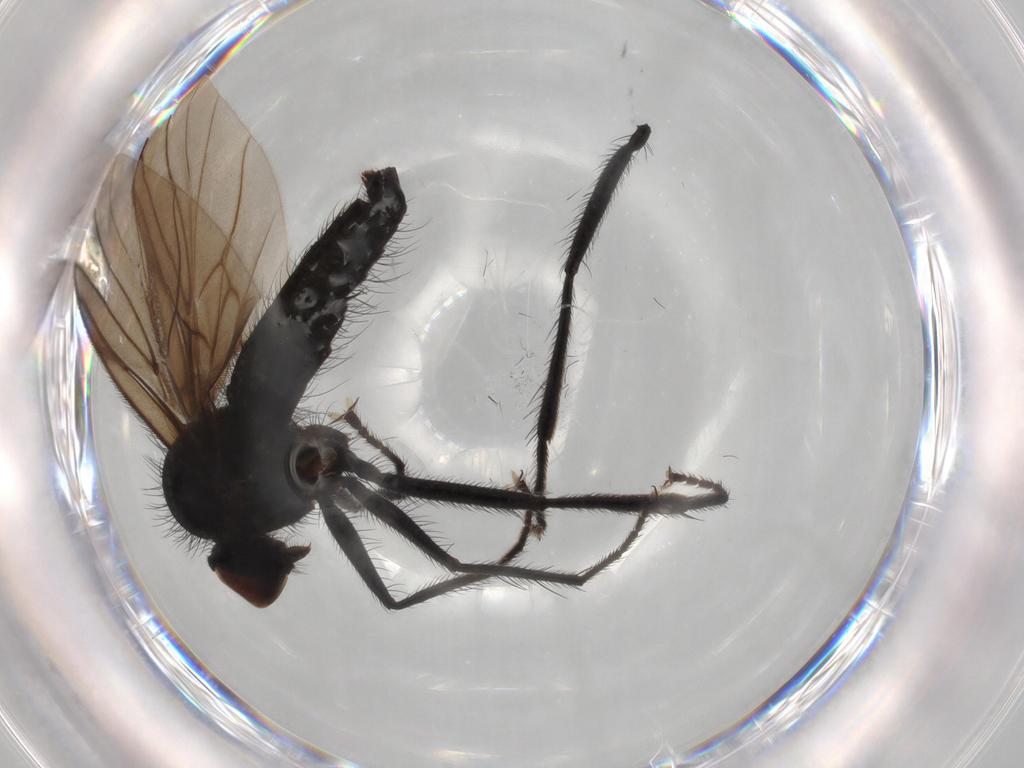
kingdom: Animalia
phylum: Arthropoda
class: Insecta
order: Diptera
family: Hybotidae
